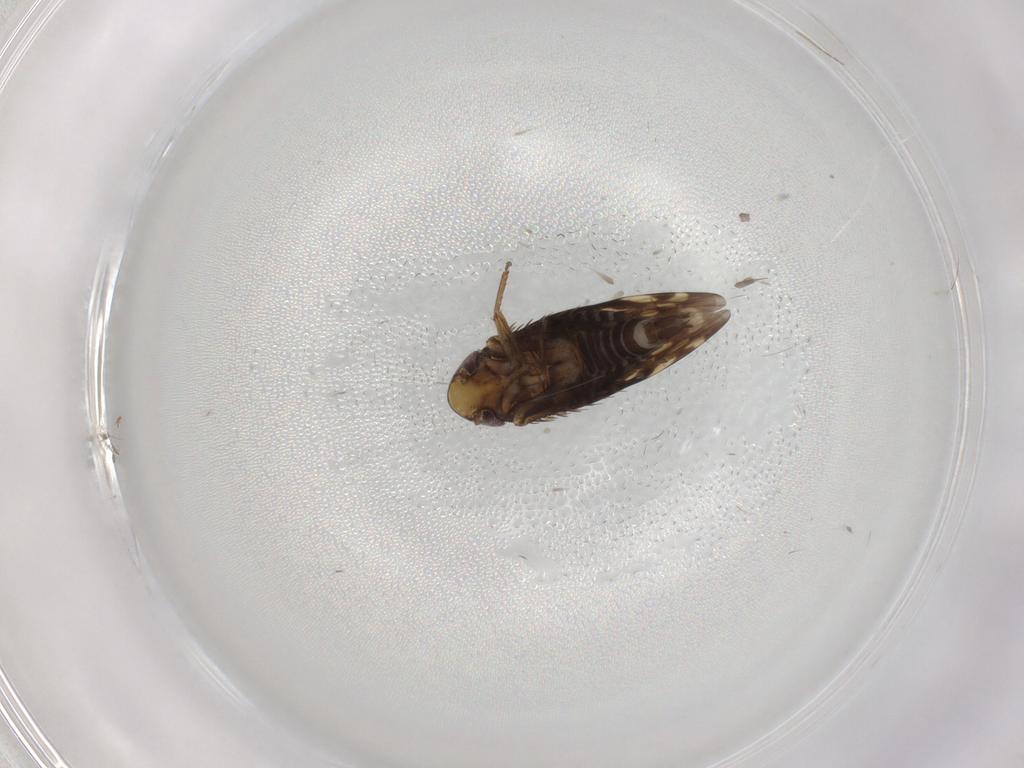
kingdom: Animalia
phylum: Arthropoda
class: Insecta
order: Hemiptera
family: Cicadellidae
